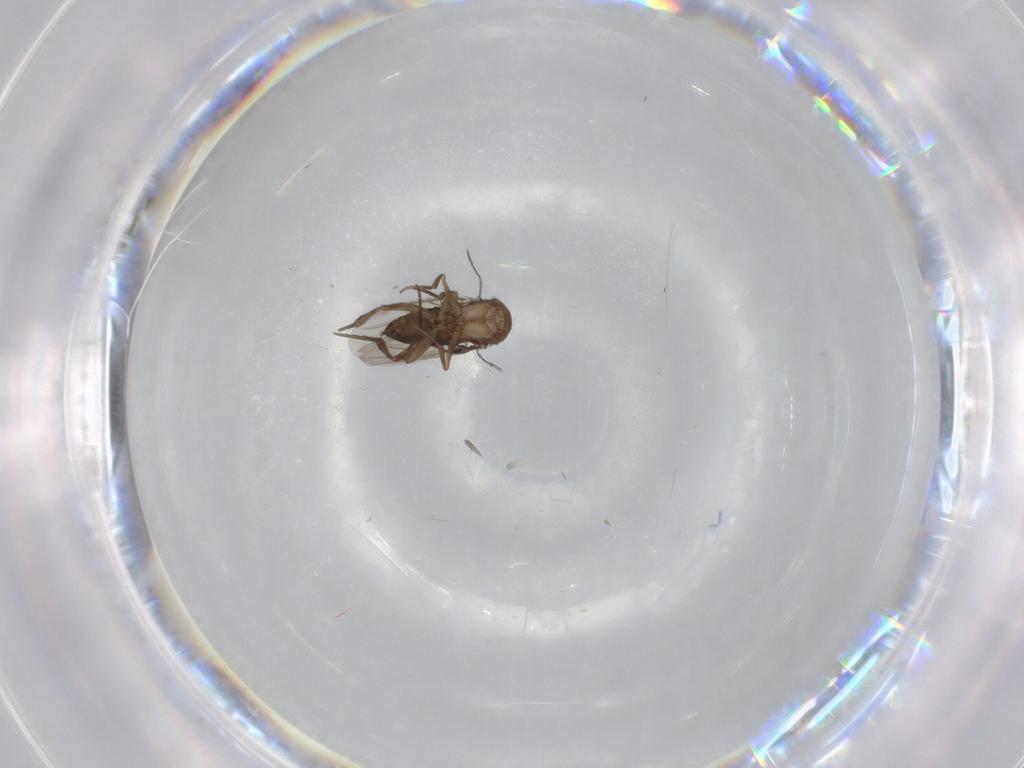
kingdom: Animalia
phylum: Arthropoda
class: Insecta
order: Diptera
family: Phoridae
